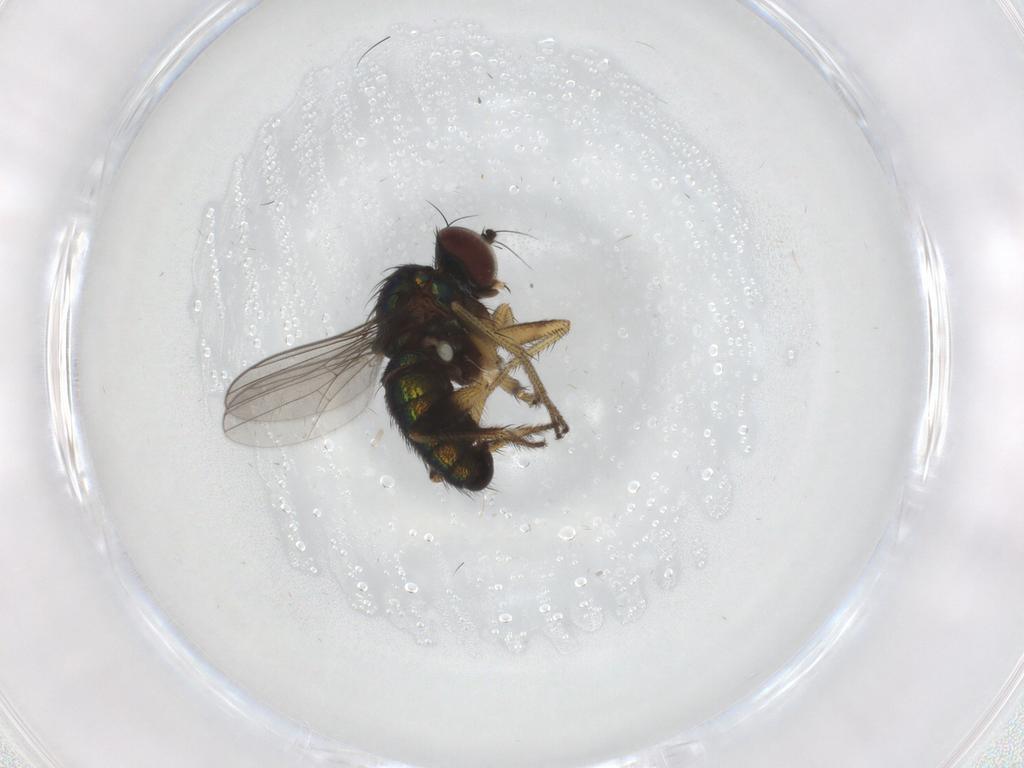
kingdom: Animalia
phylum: Arthropoda
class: Insecta
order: Diptera
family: Dolichopodidae
